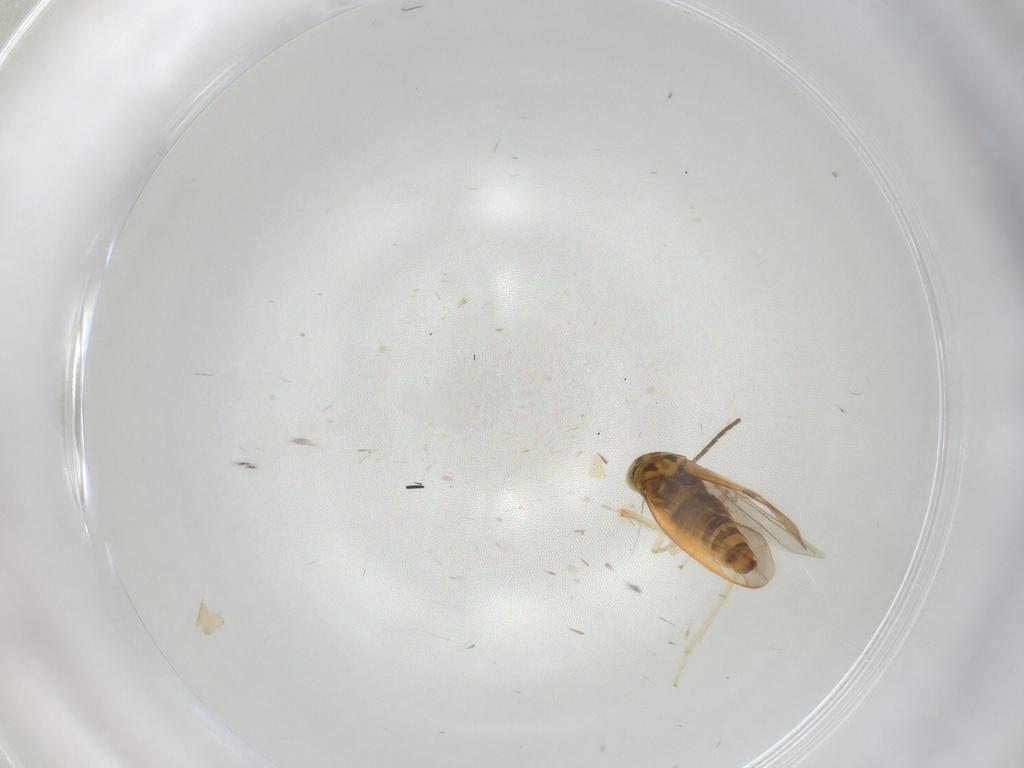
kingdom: Animalia
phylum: Arthropoda
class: Insecta
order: Hemiptera
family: Cicadellidae
